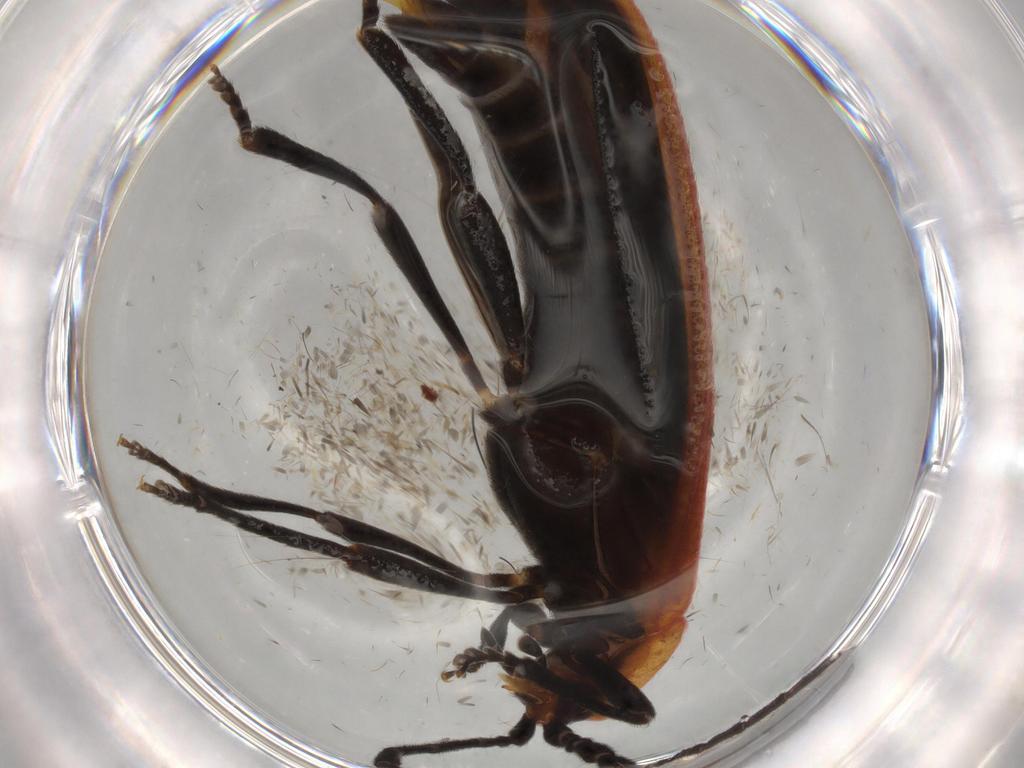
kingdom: Animalia
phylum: Arthropoda
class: Insecta
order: Coleoptera
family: Lycidae
